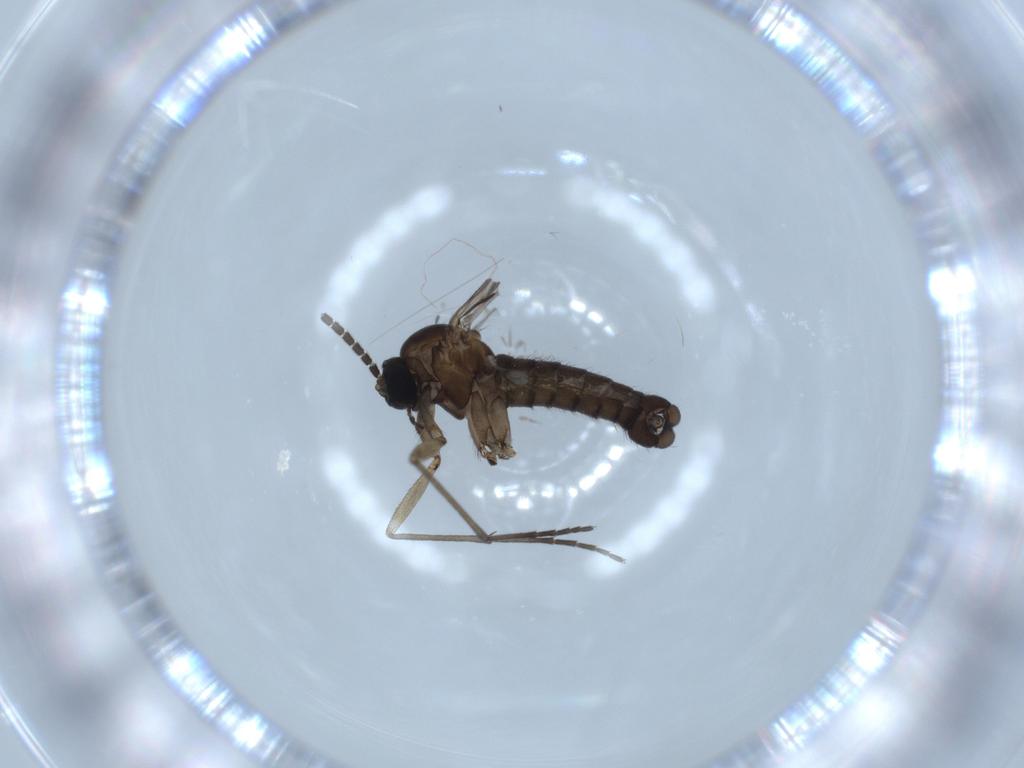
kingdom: Animalia
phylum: Arthropoda
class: Insecta
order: Diptera
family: Sciaridae
